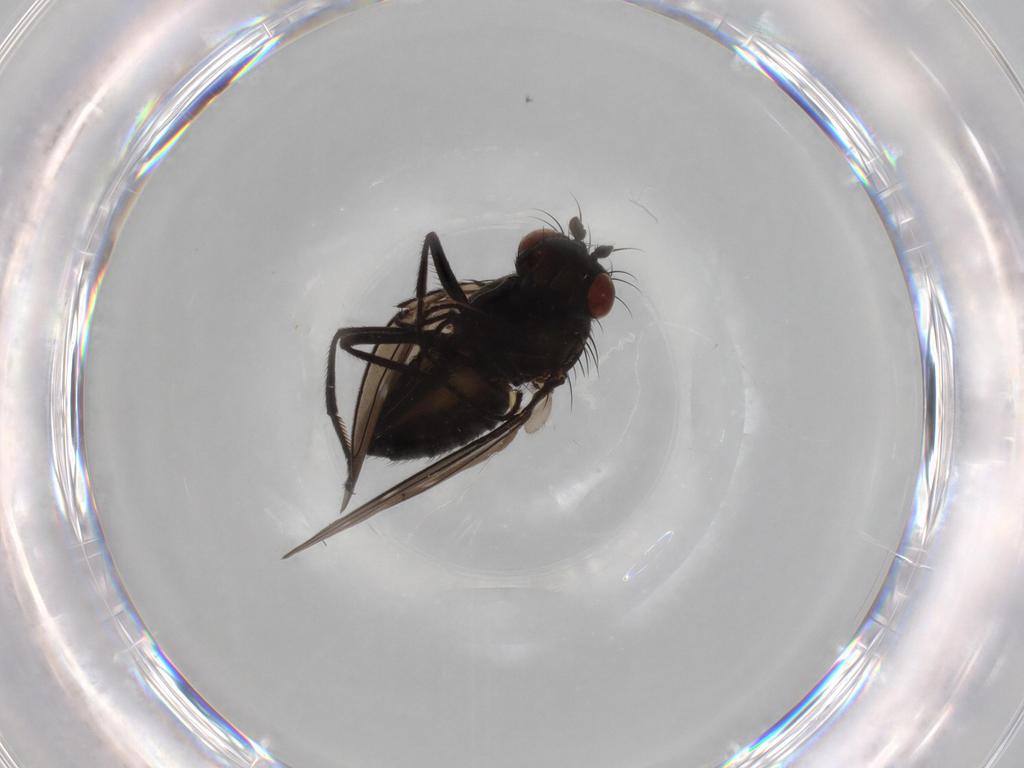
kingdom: Animalia
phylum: Arthropoda
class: Insecta
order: Diptera
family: Ephydridae
